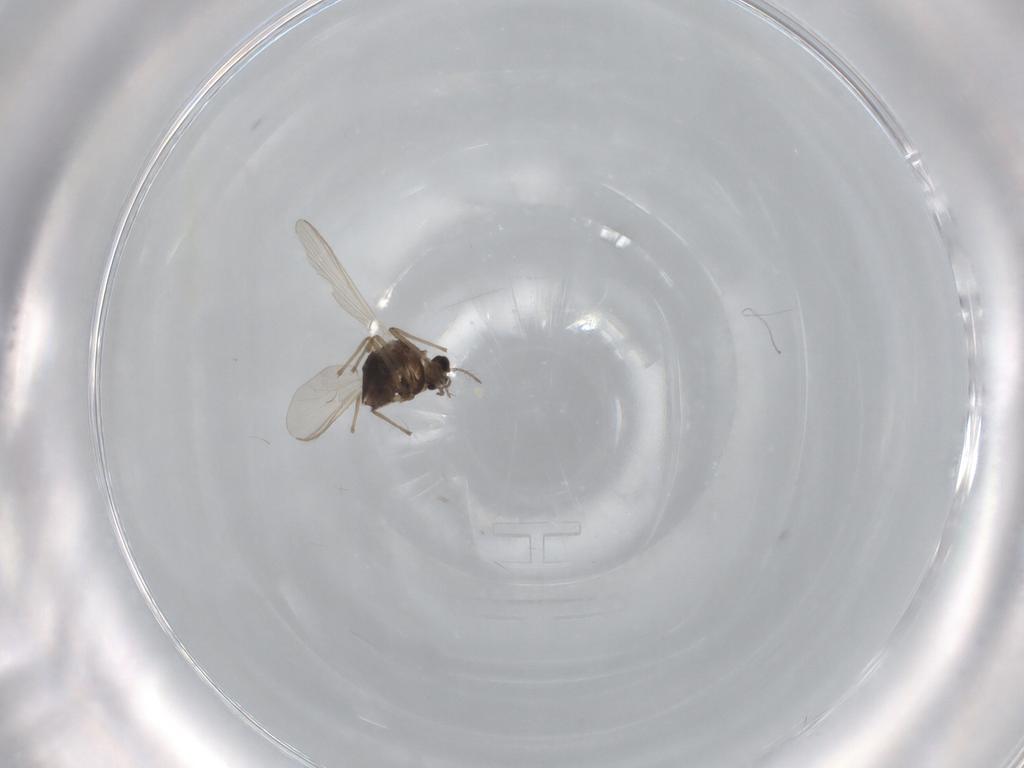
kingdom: Animalia
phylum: Arthropoda
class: Insecta
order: Diptera
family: Chironomidae
